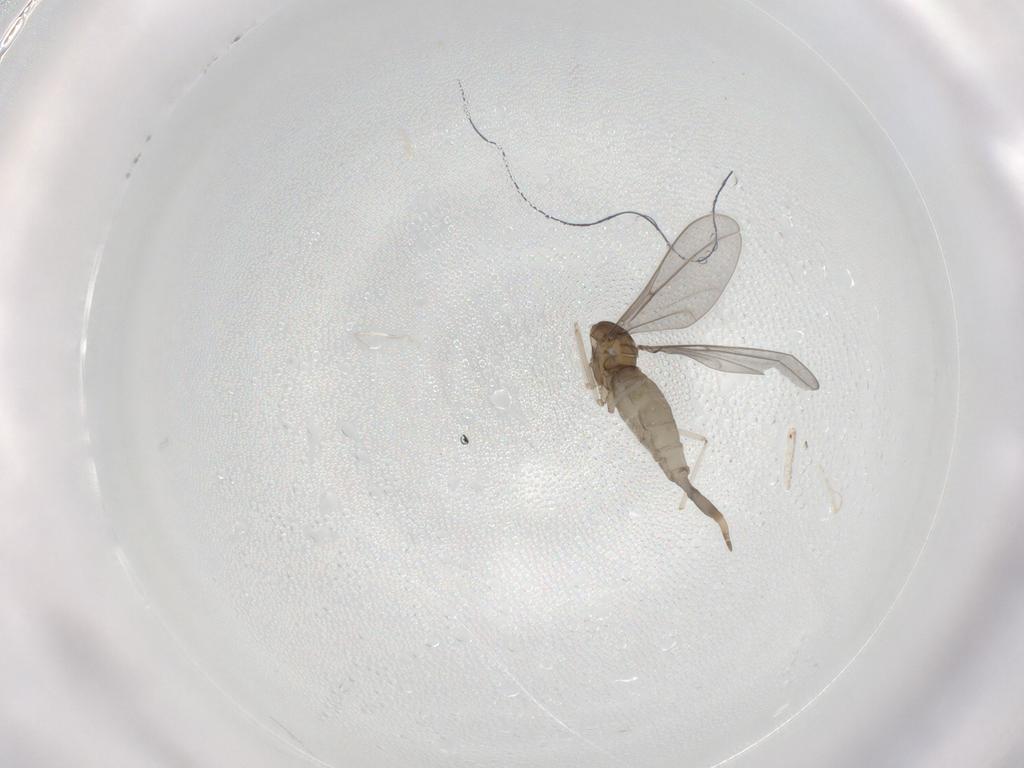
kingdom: Animalia
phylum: Arthropoda
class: Insecta
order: Diptera
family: Cecidomyiidae
